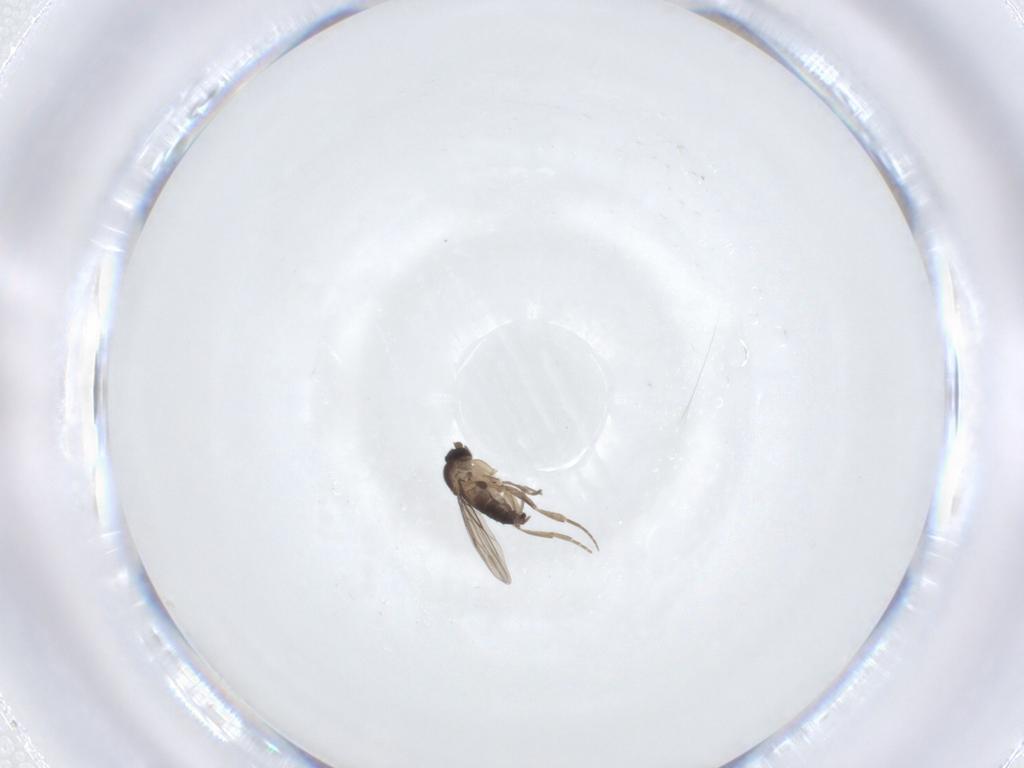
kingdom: Animalia
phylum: Arthropoda
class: Insecta
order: Diptera
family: Phoridae
